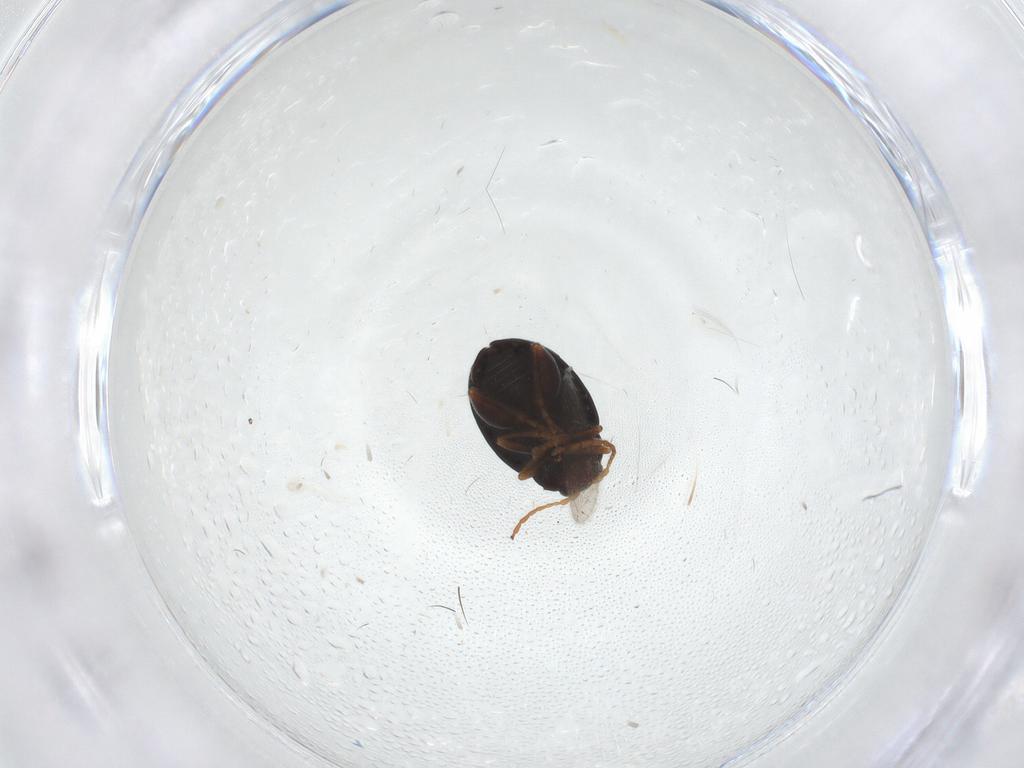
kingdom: Animalia
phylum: Arthropoda
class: Insecta
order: Coleoptera
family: Chrysomelidae
